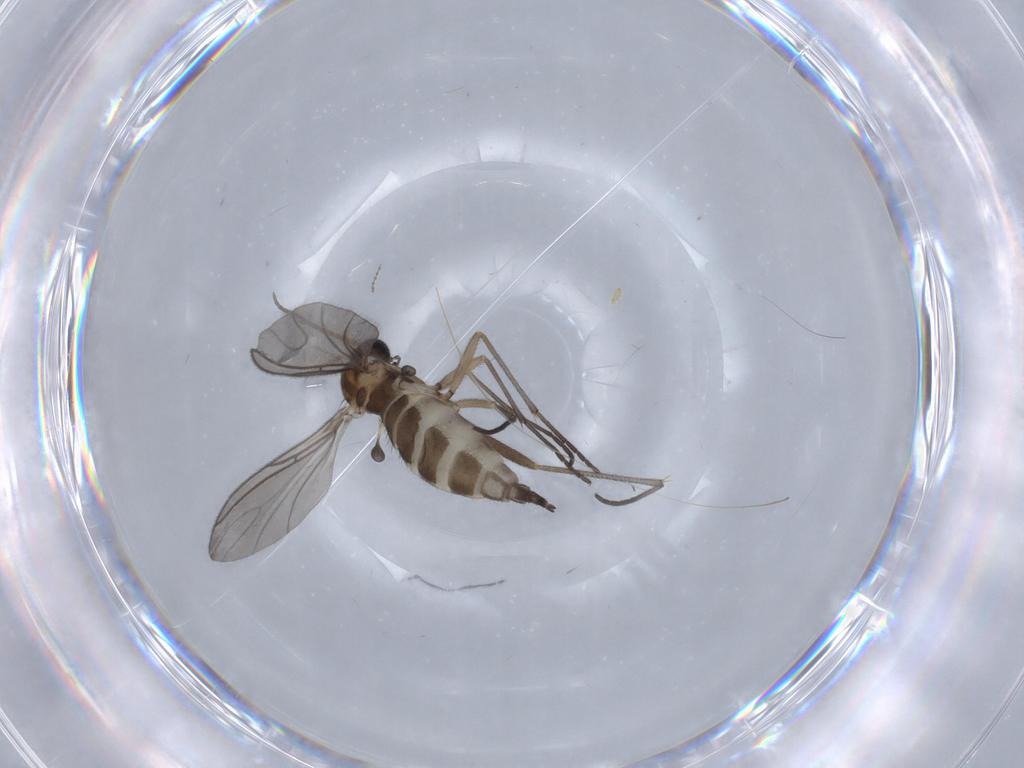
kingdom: Animalia
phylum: Arthropoda
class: Insecta
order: Diptera
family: Sciaridae
